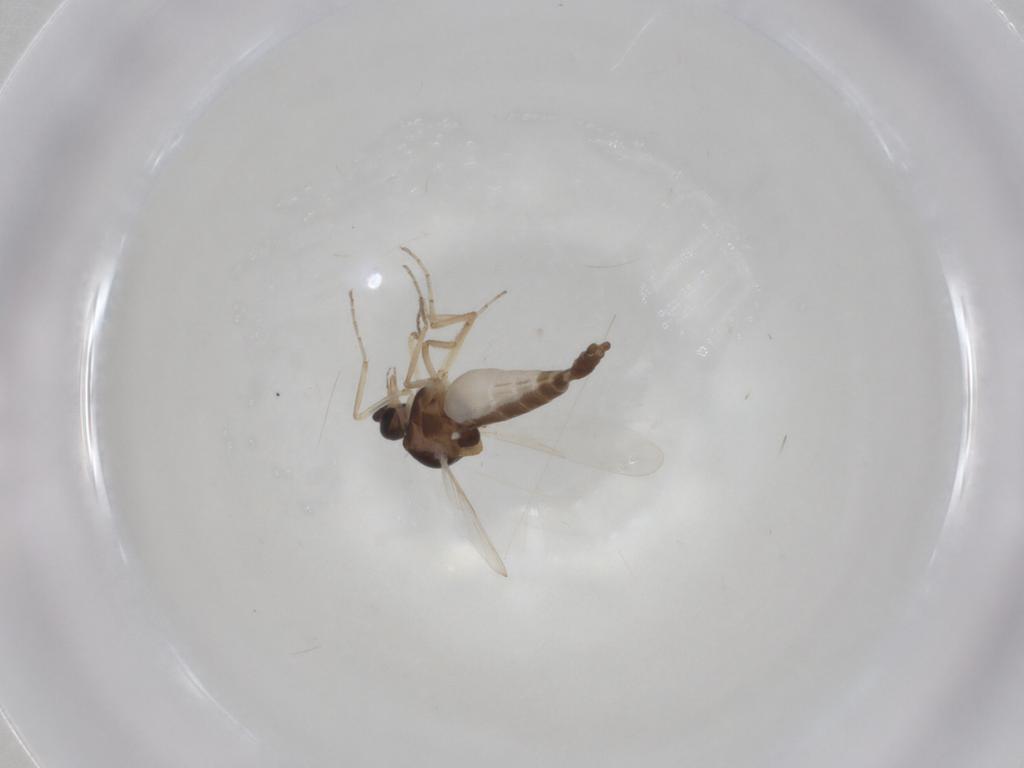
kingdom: Animalia
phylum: Arthropoda
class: Insecta
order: Diptera
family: Ceratopogonidae
